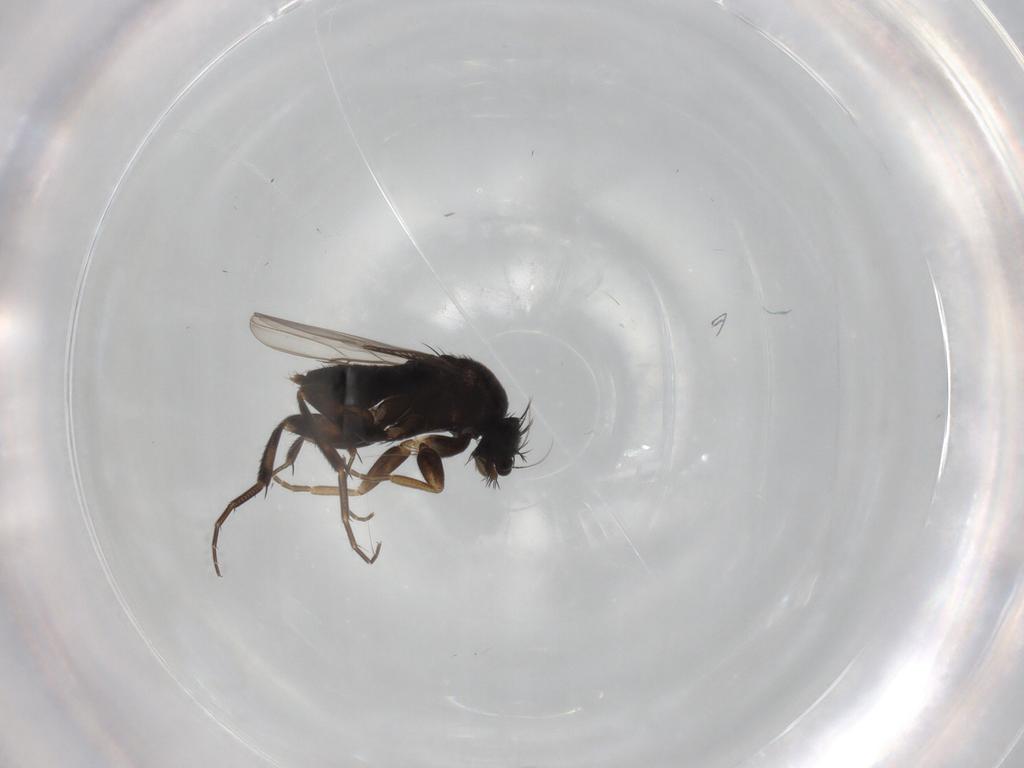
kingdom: Animalia
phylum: Arthropoda
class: Insecta
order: Diptera
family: Phoridae
